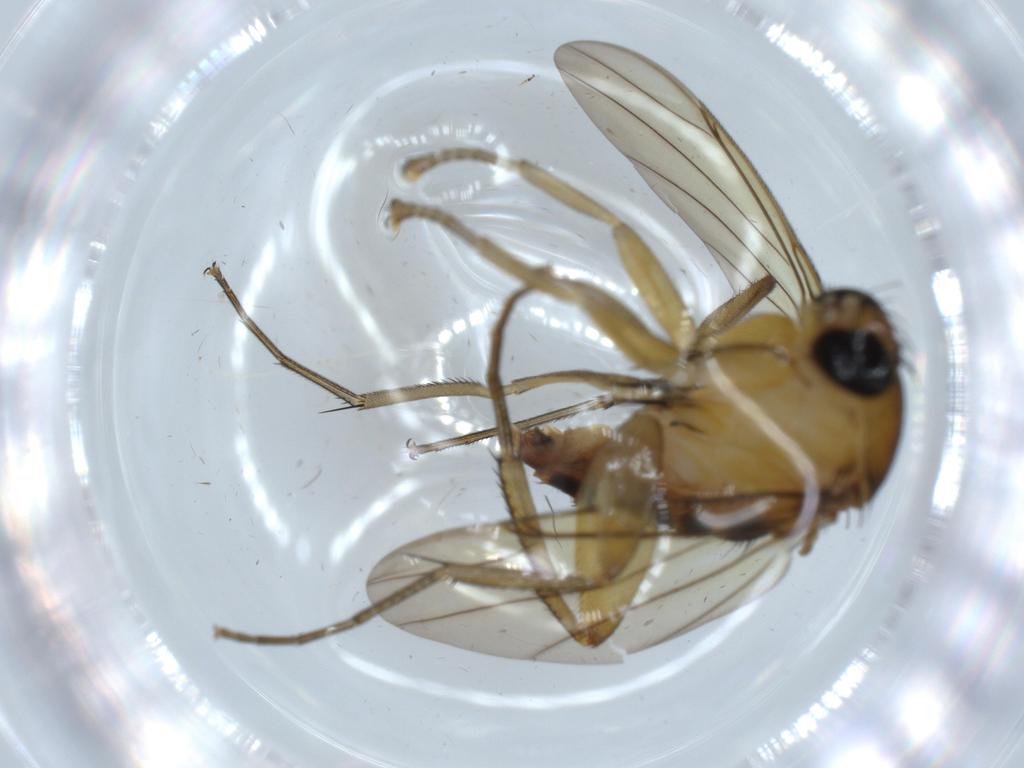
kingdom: Animalia
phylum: Arthropoda
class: Insecta
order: Diptera
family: Phoridae
